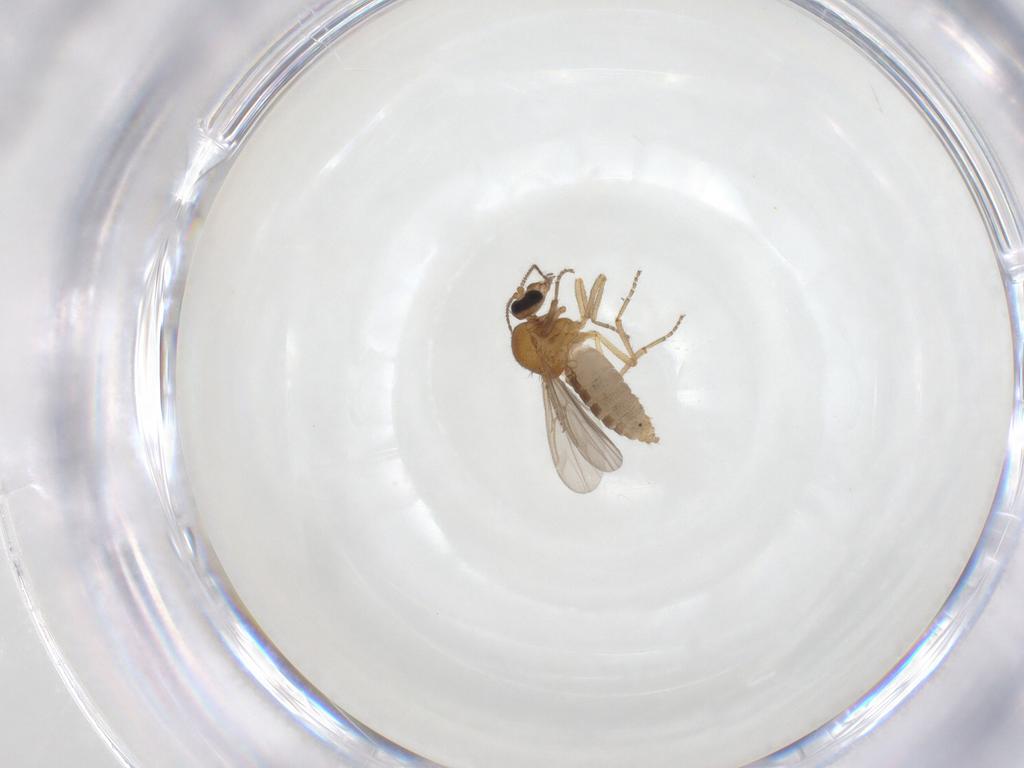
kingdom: Animalia
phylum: Arthropoda
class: Insecta
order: Diptera
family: Ceratopogonidae
